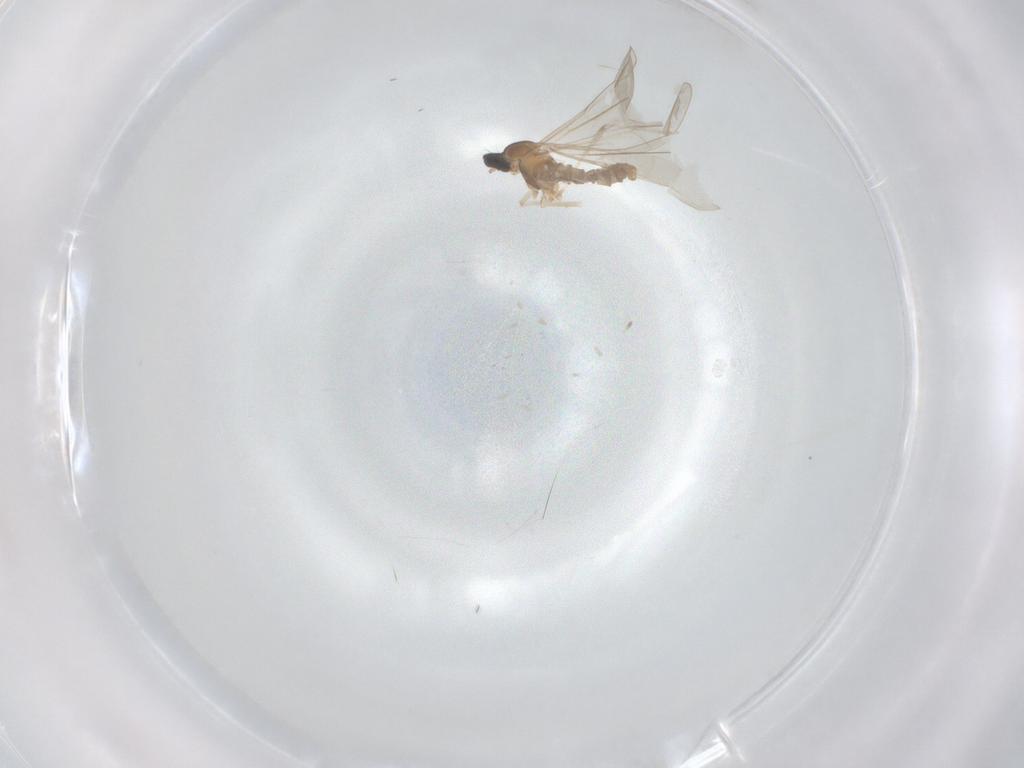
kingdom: Animalia
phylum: Arthropoda
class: Insecta
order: Diptera
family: Cecidomyiidae
